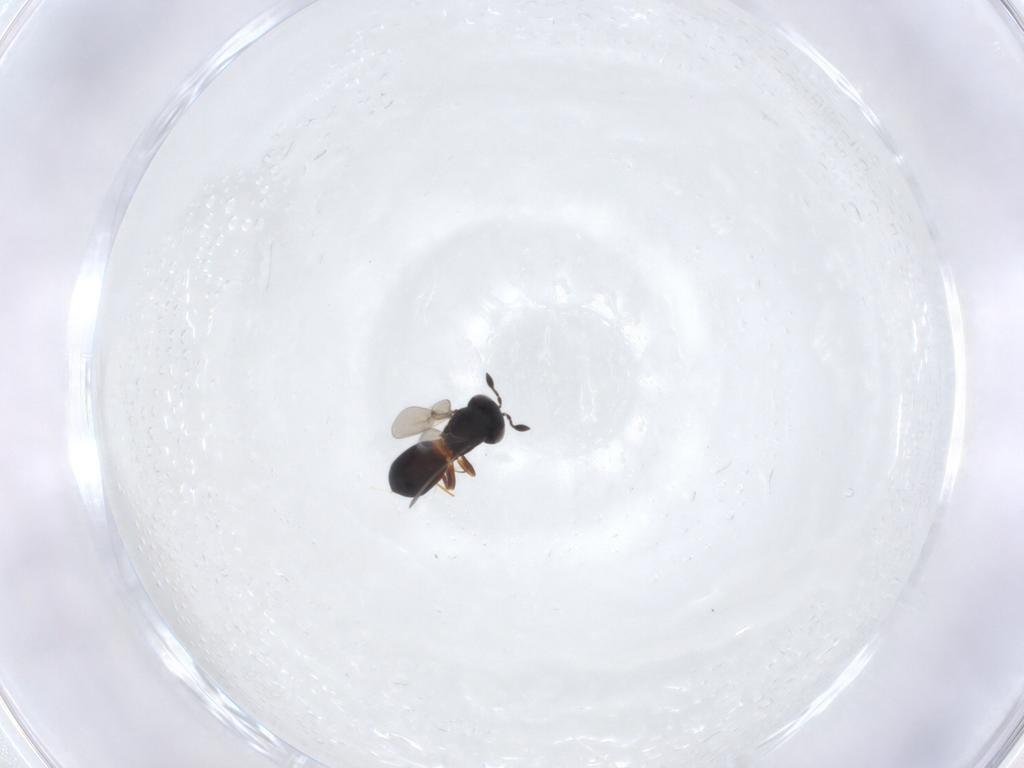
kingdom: Animalia
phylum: Arthropoda
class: Insecta
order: Hymenoptera
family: Scelionidae
